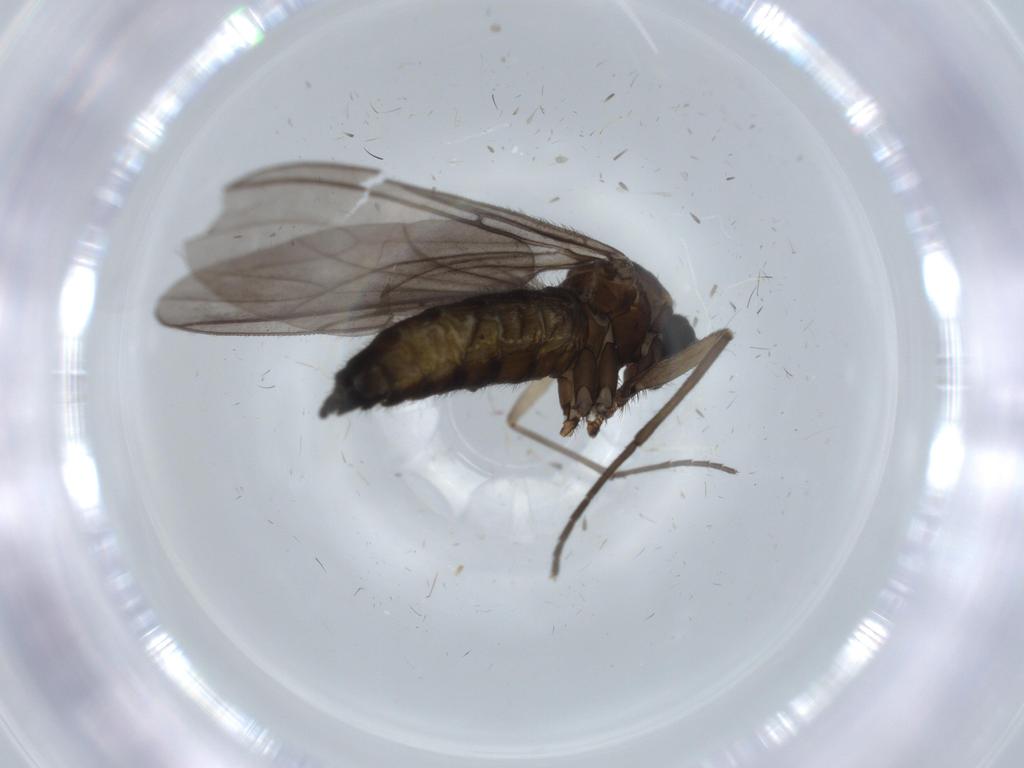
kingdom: Animalia
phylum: Arthropoda
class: Insecta
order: Diptera
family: Sciaridae
